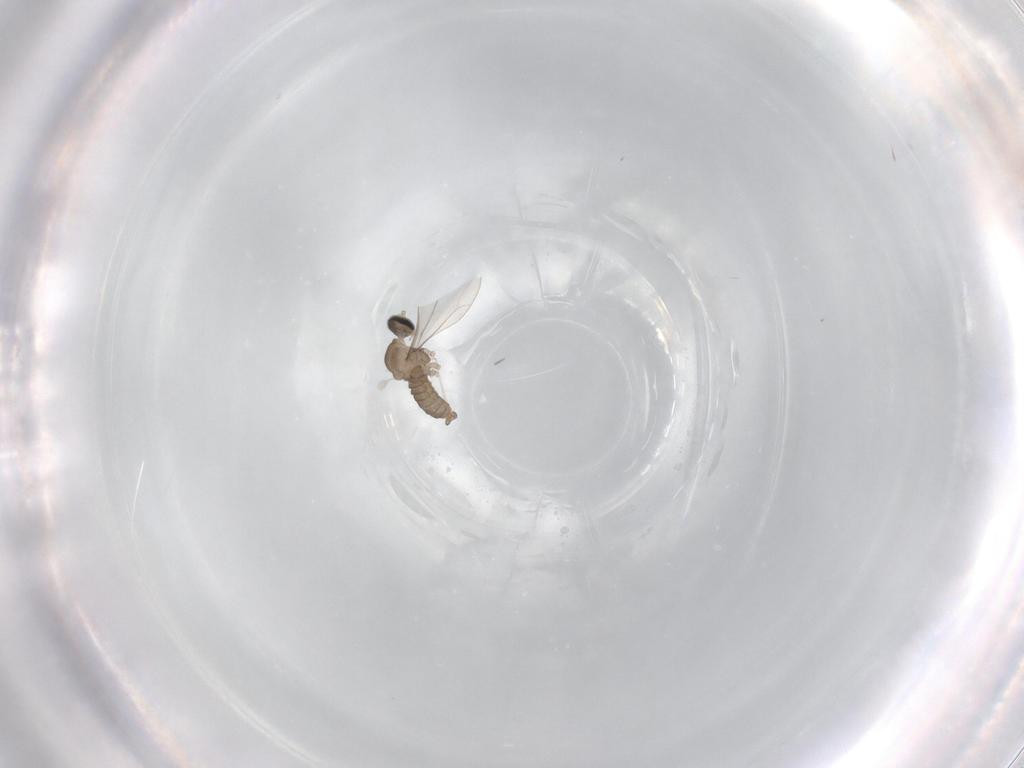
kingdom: Animalia
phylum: Arthropoda
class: Insecta
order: Diptera
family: Cecidomyiidae
